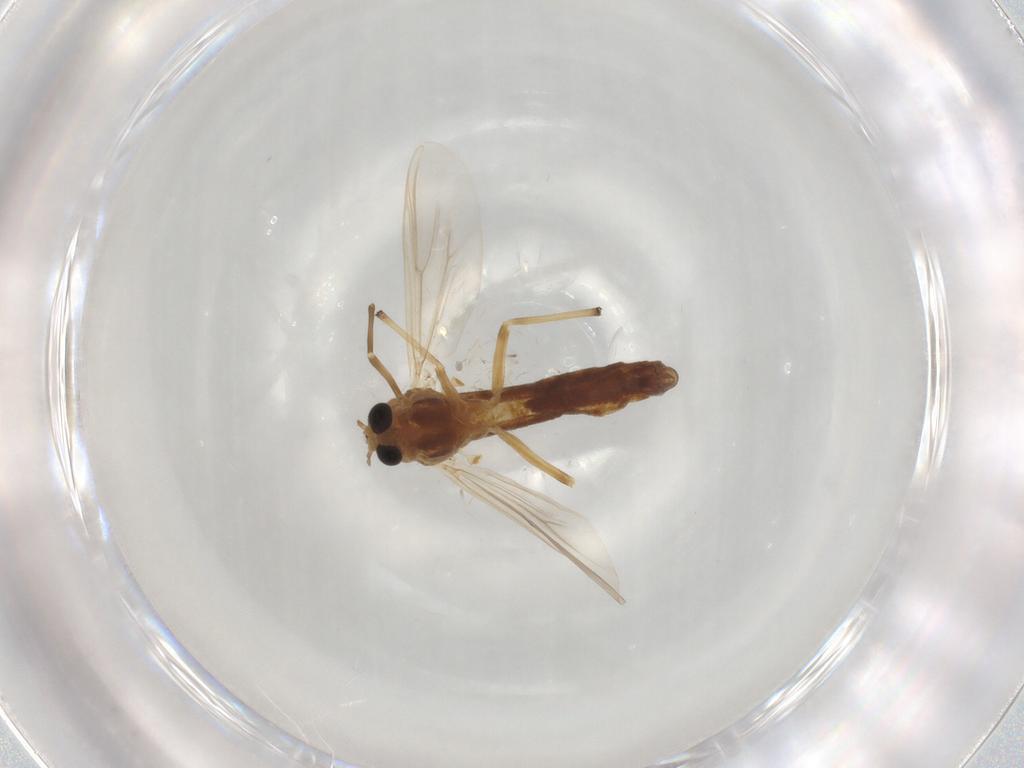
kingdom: Animalia
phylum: Arthropoda
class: Insecta
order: Diptera
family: Chironomidae
